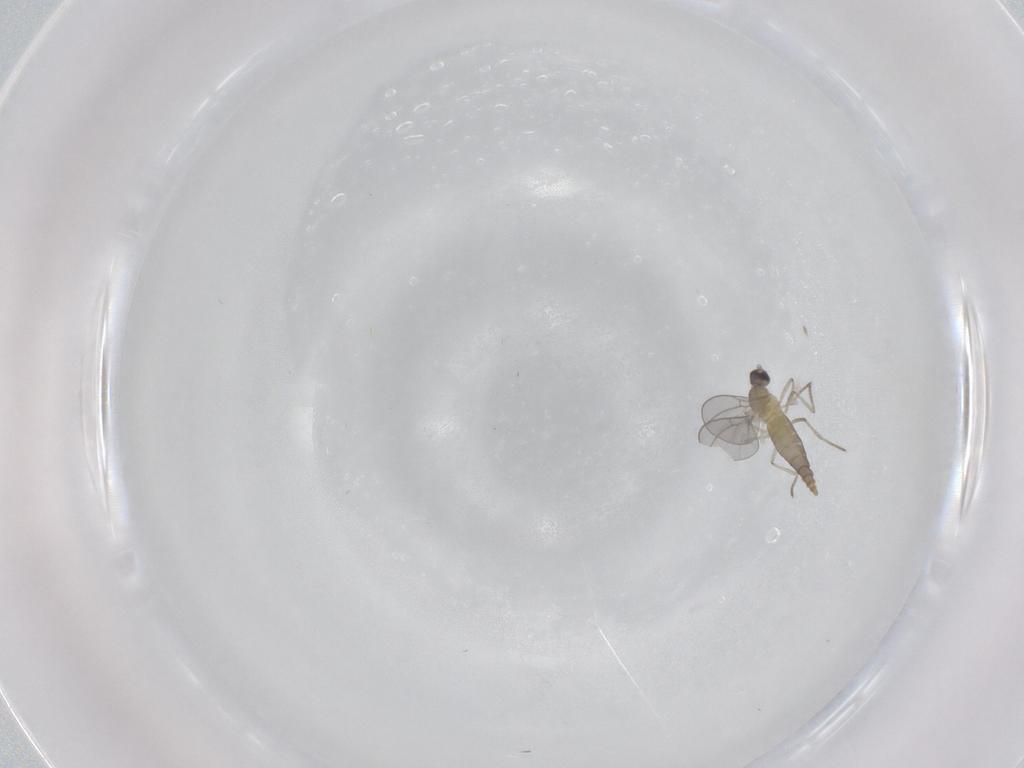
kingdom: Animalia
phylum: Arthropoda
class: Insecta
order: Diptera
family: Cecidomyiidae
